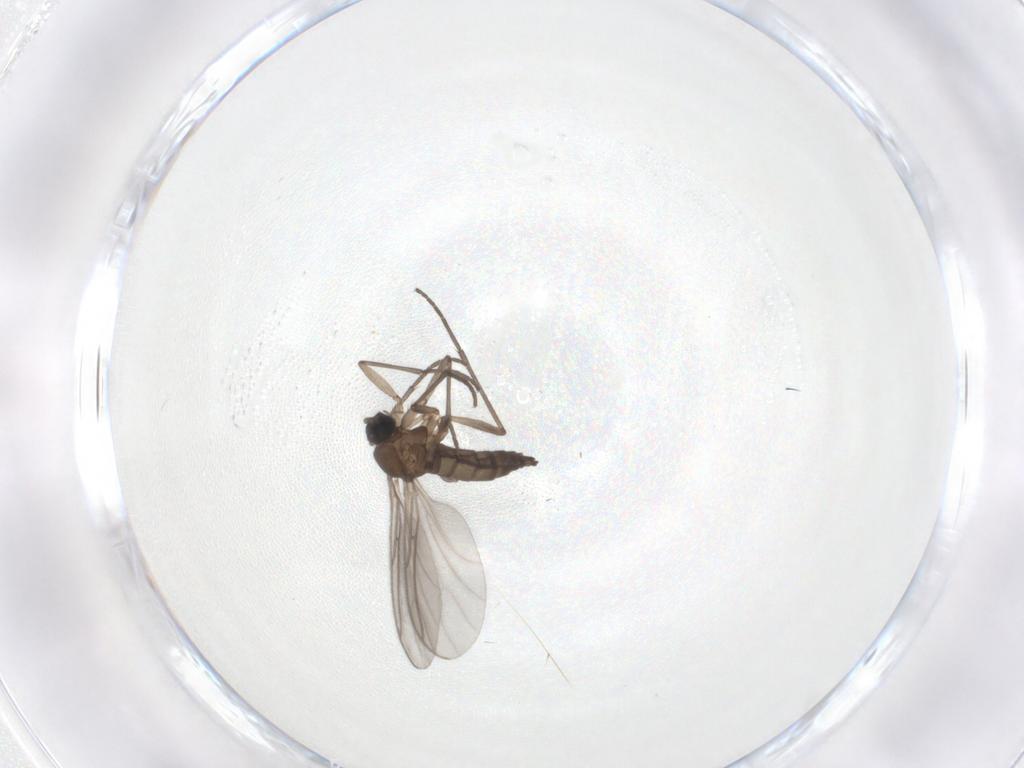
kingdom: Animalia
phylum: Arthropoda
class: Insecta
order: Diptera
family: Sciaridae
